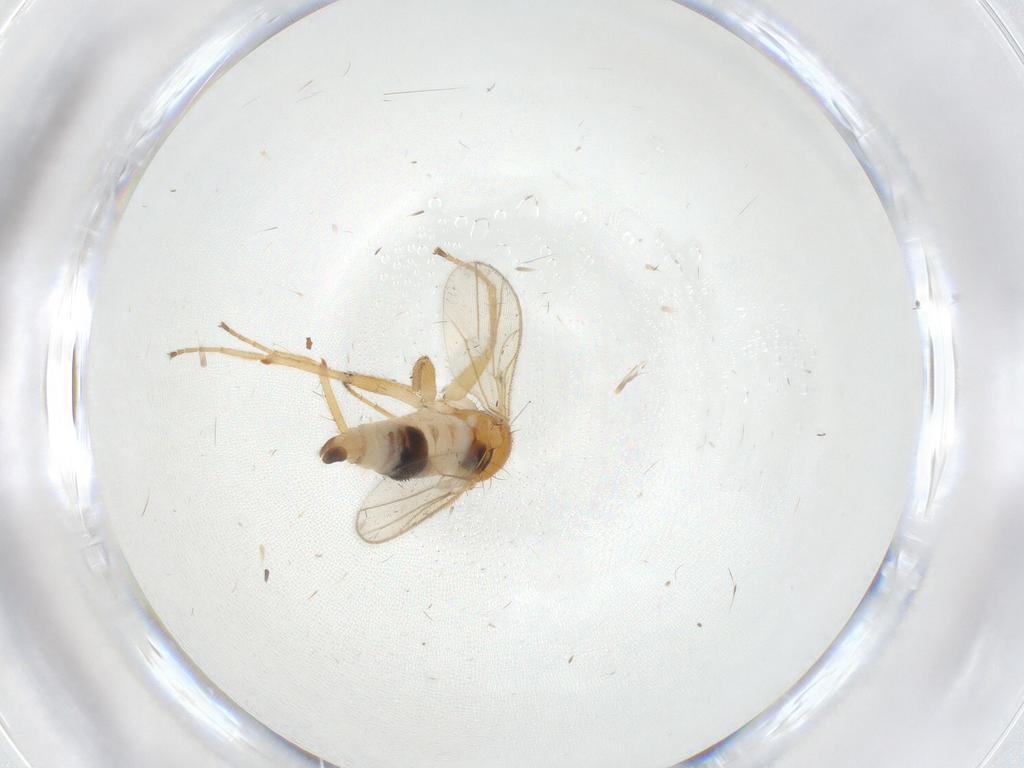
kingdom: Animalia
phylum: Arthropoda
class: Insecta
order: Diptera
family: Hybotidae
